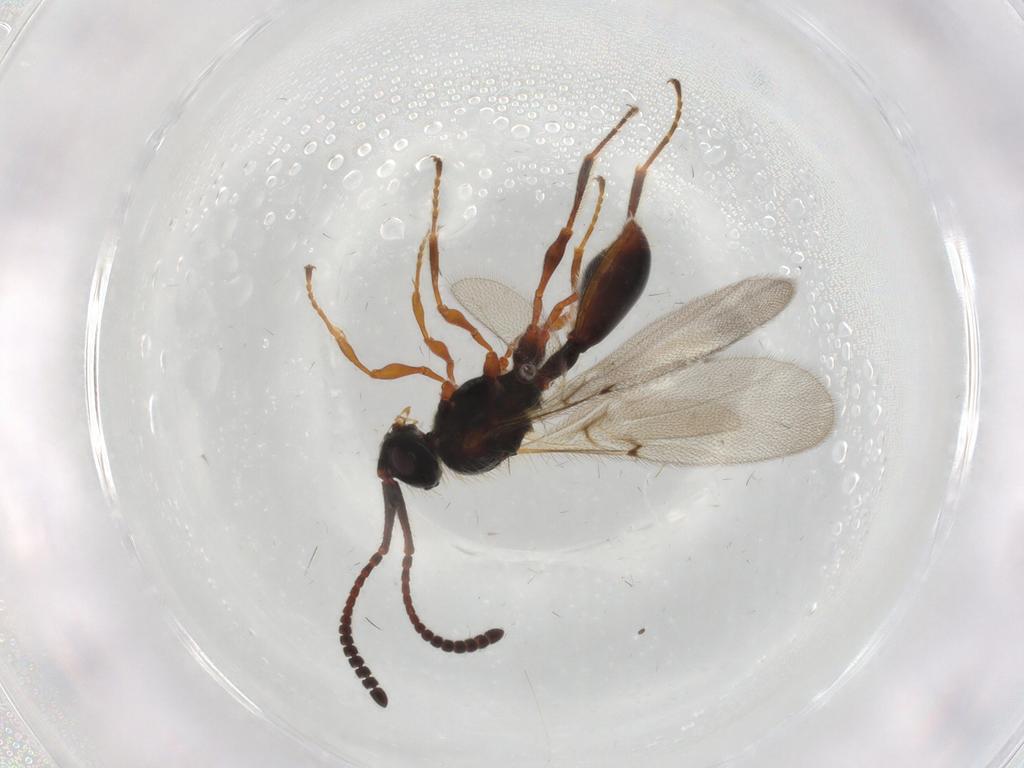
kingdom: Animalia
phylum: Arthropoda
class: Insecta
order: Hymenoptera
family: Diapriidae
